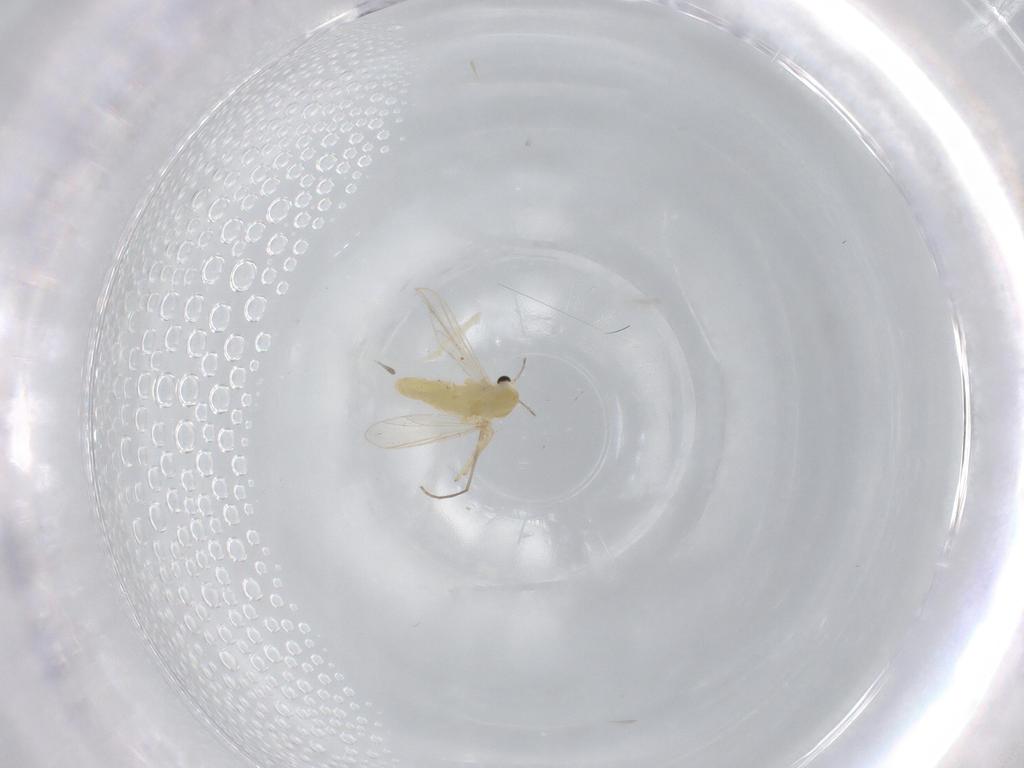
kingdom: Animalia
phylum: Arthropoda
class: Insecta
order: Diptera
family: Chironomidae
